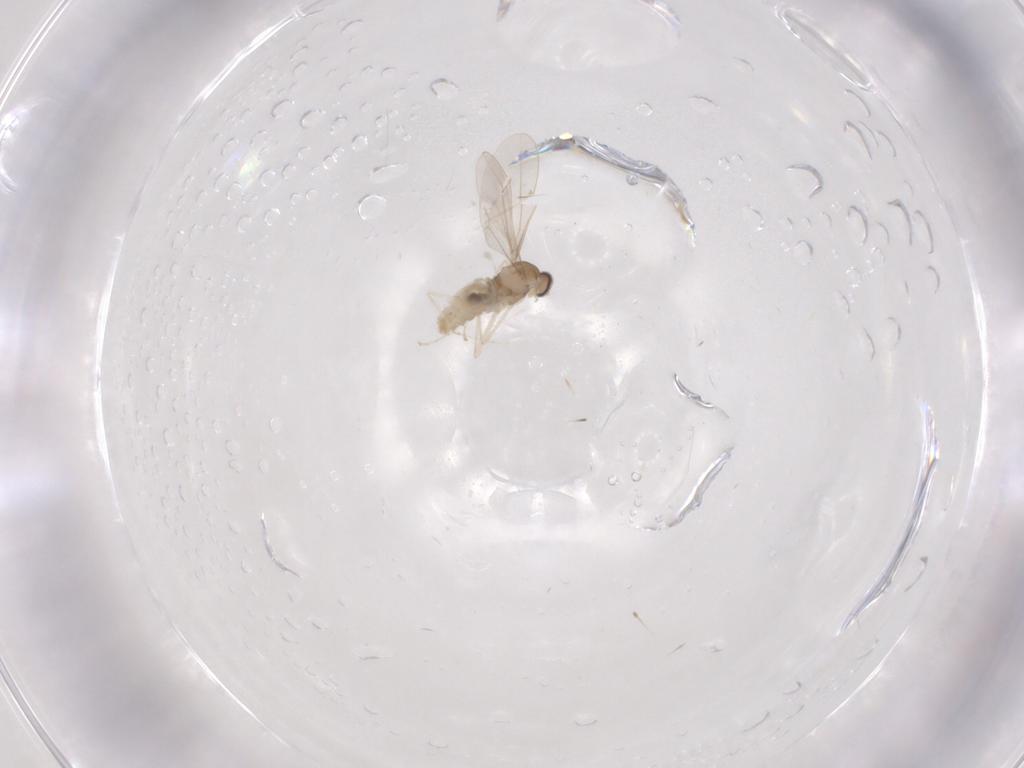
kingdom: Animalia
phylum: Arthropoda
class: Insecta
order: Diptera
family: Cecidomyiidae
